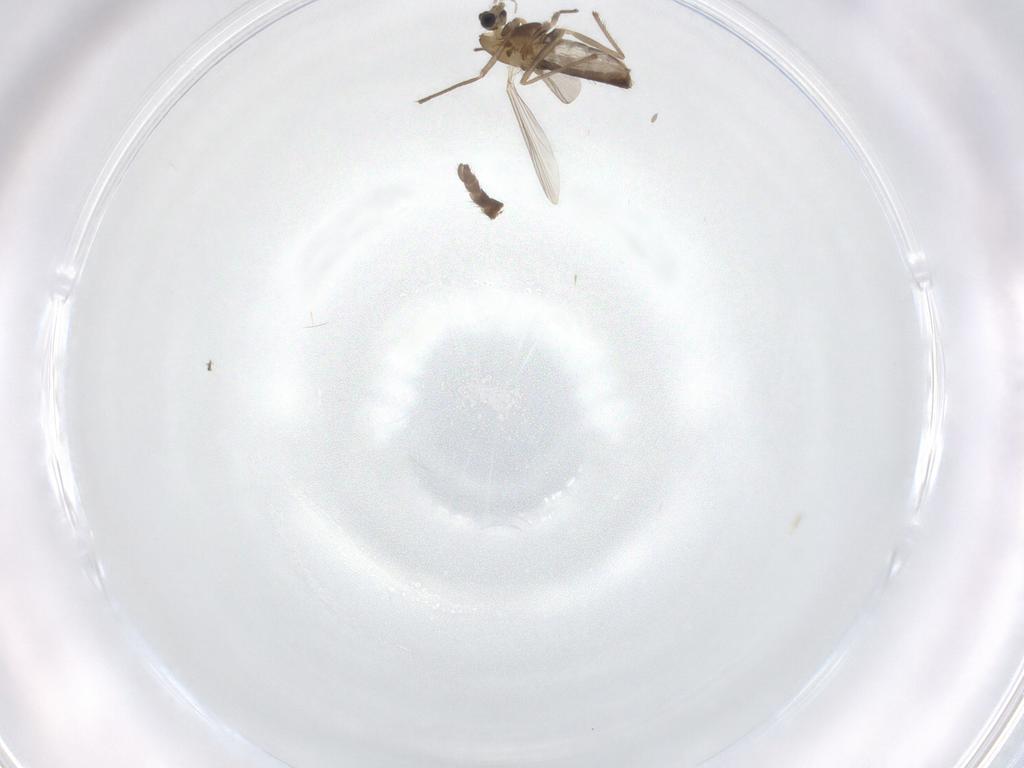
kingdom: Animalia
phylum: Arthropoda
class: Insecta
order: Diptera
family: Chironomidae
